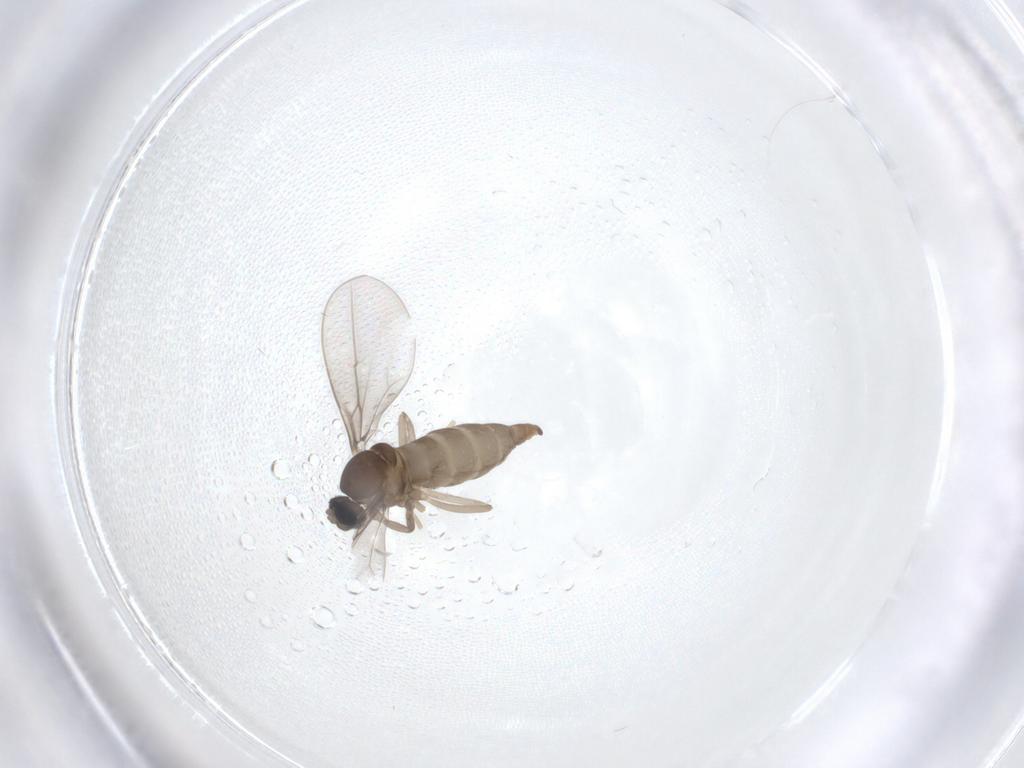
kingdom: Animalia
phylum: Arthropoda
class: Insecta
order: Diptera
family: Cecidomyiidae
